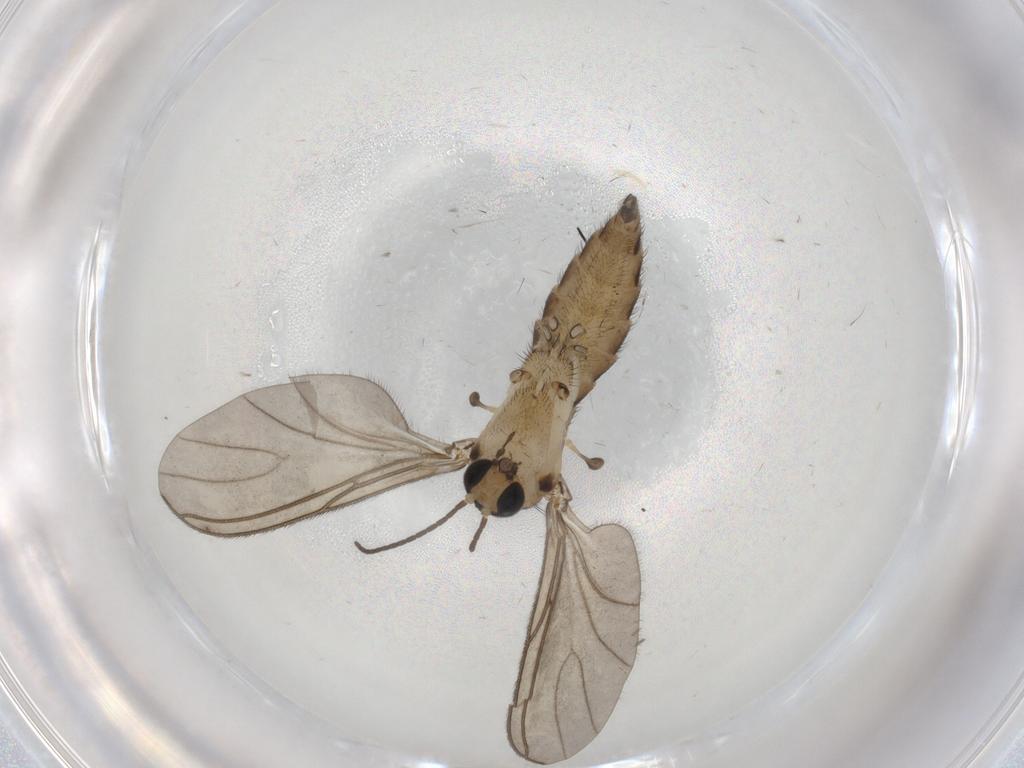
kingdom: Animalia
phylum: Arthropoda
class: Insecta
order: Diptera
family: Sciaridae
